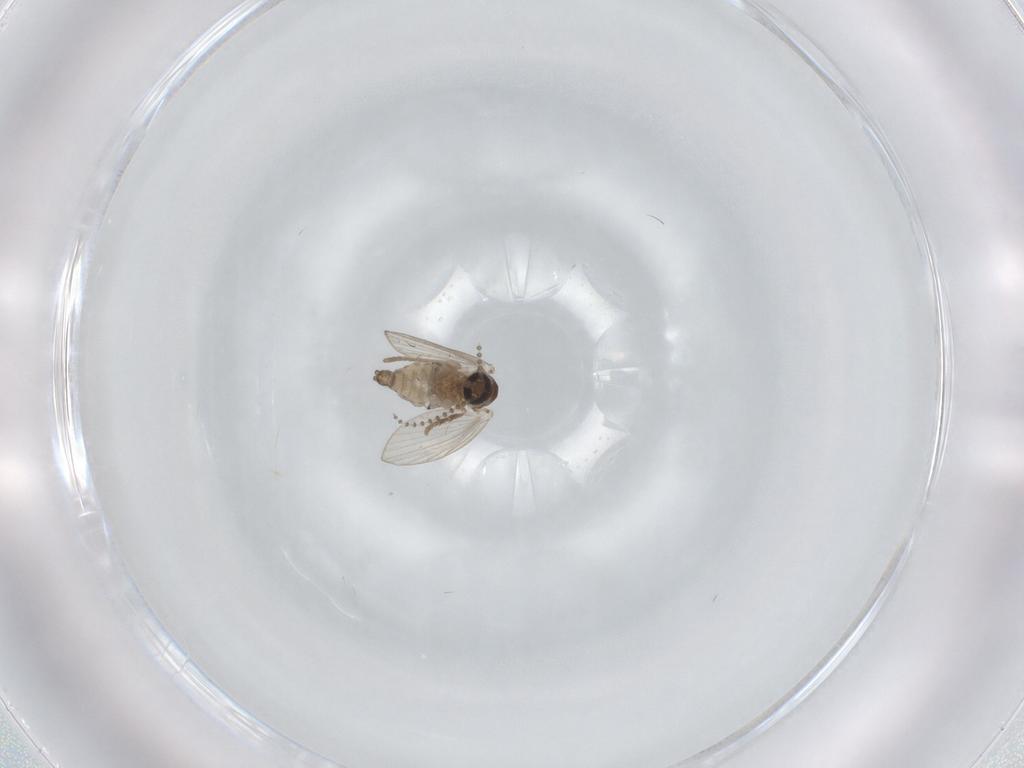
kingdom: Animalia
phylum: Arthropoda
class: Insecta
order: Diptera
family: Psychodidae
